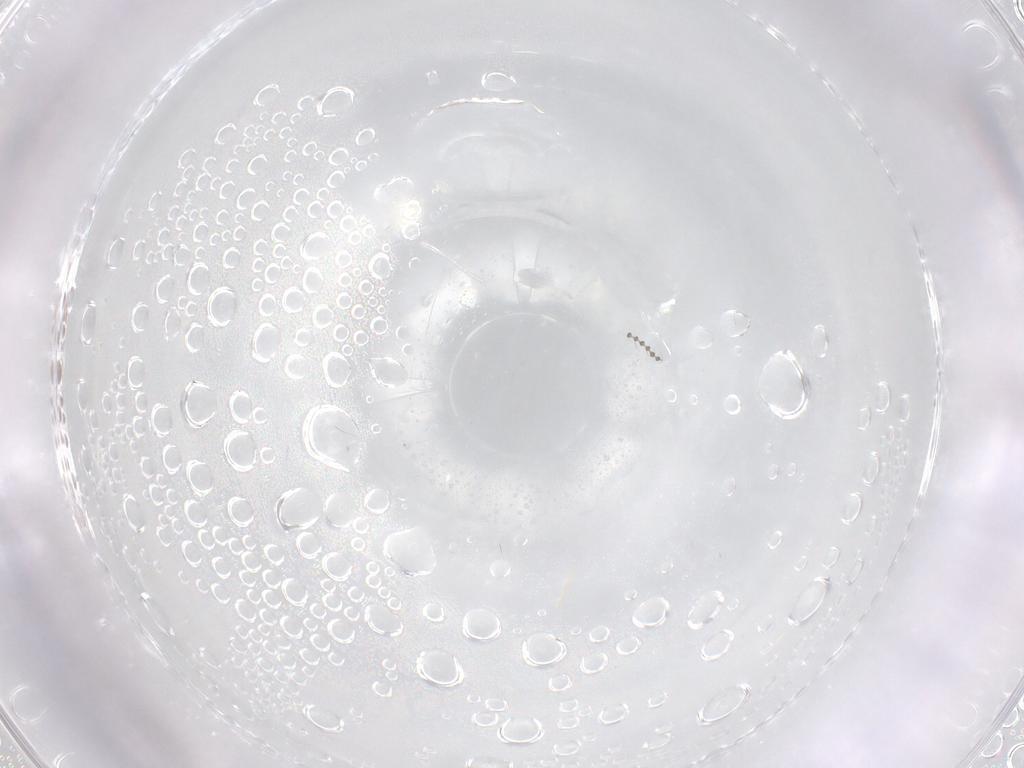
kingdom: Animalia
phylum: Arthropoda
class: Insecta
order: Diptera
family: Cecidomyiidae
